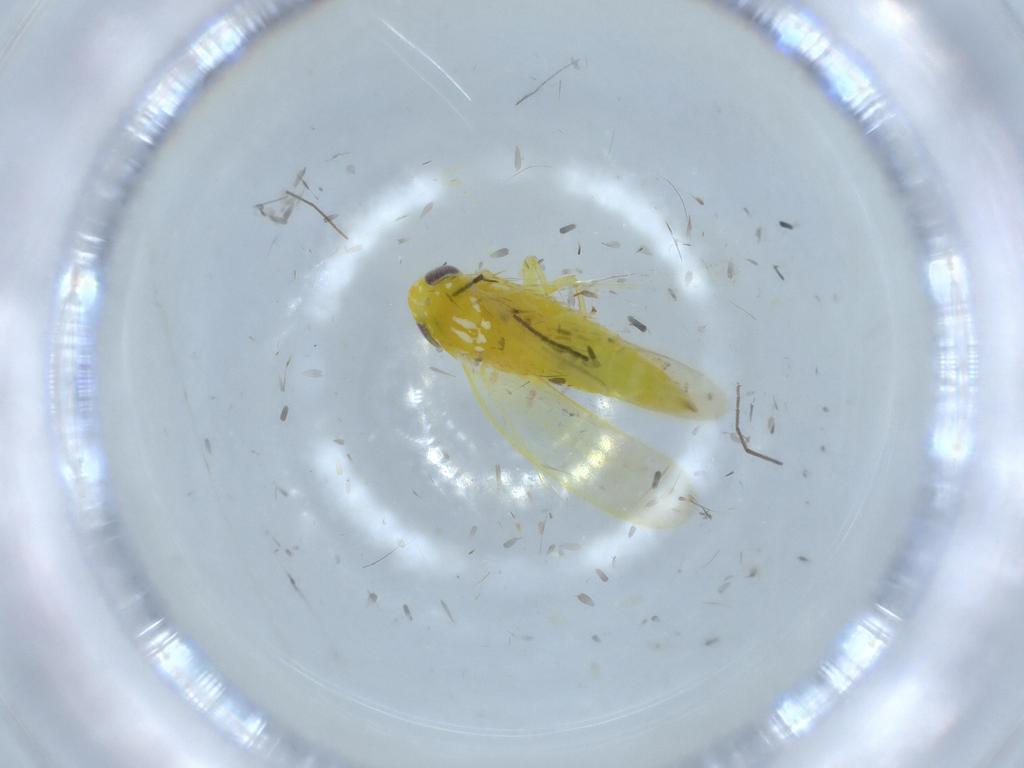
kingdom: Animalia
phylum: Arthropoda
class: Insecta
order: Hemiptera
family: Cicadellidae
